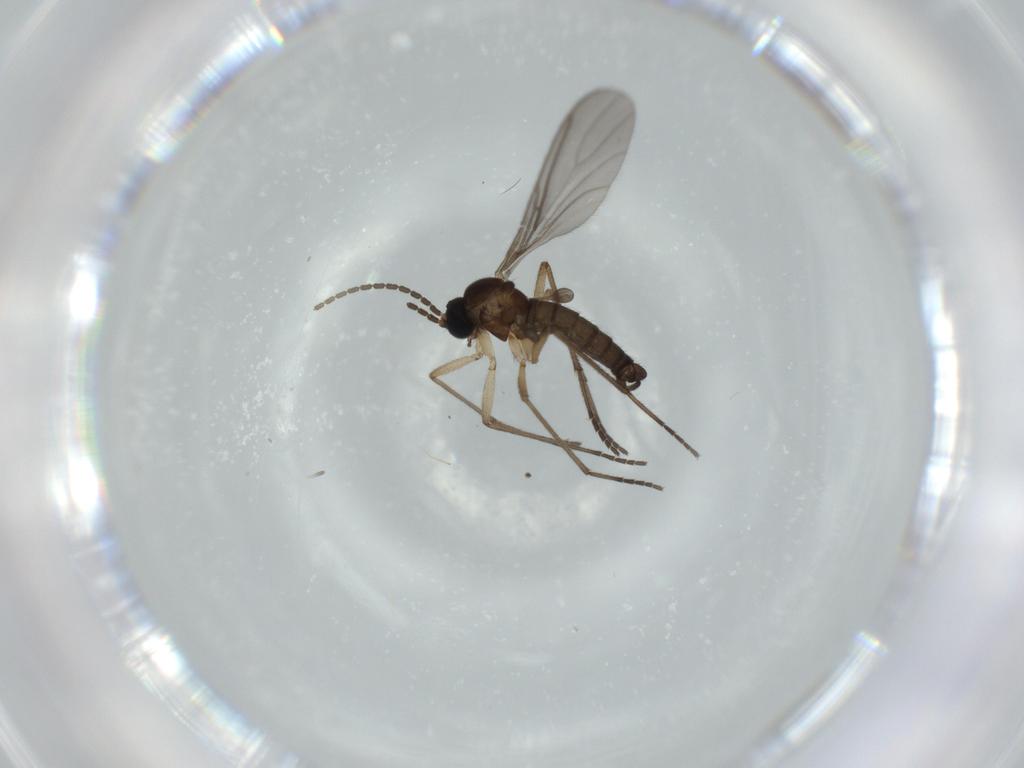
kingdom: Animalia
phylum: Arthropoda
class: Insecta
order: Diptera
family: Sciaridae
